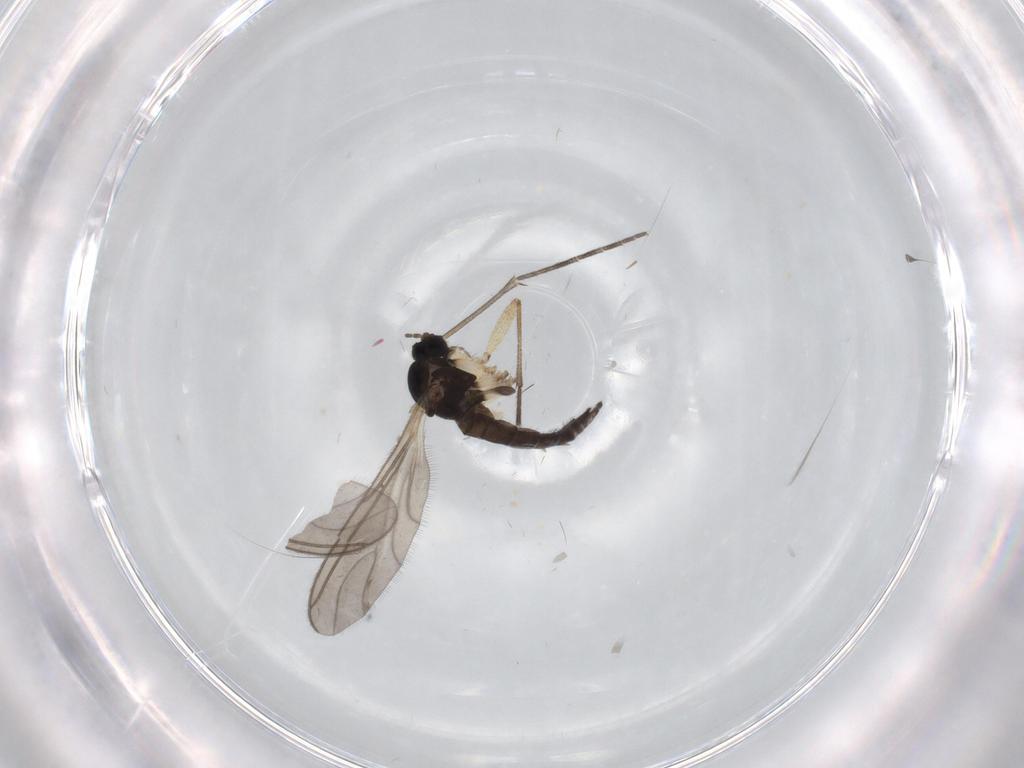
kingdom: Animalia
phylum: Arthropoda
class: Insecta
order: Diptera
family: Sciaridae
